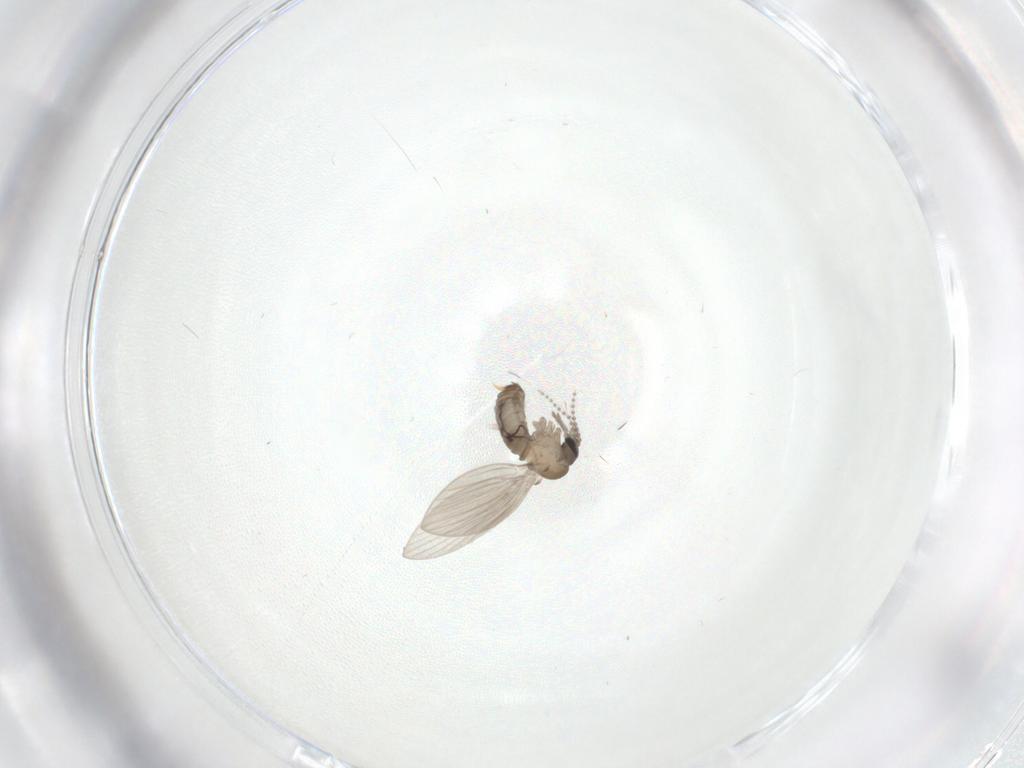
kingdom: Animalia
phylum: Arthropoda
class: Insecta
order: Diptera
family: Psychodidae
